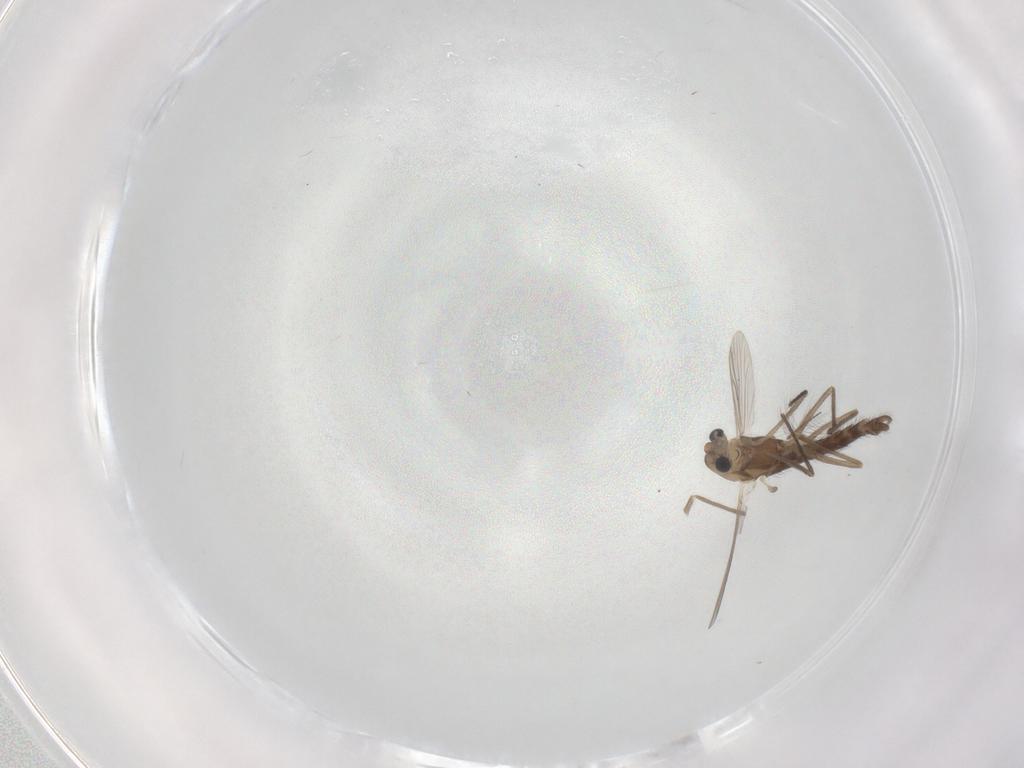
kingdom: Animalia
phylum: Arthropoda
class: Insecta
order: Diptera
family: Chironomidae
